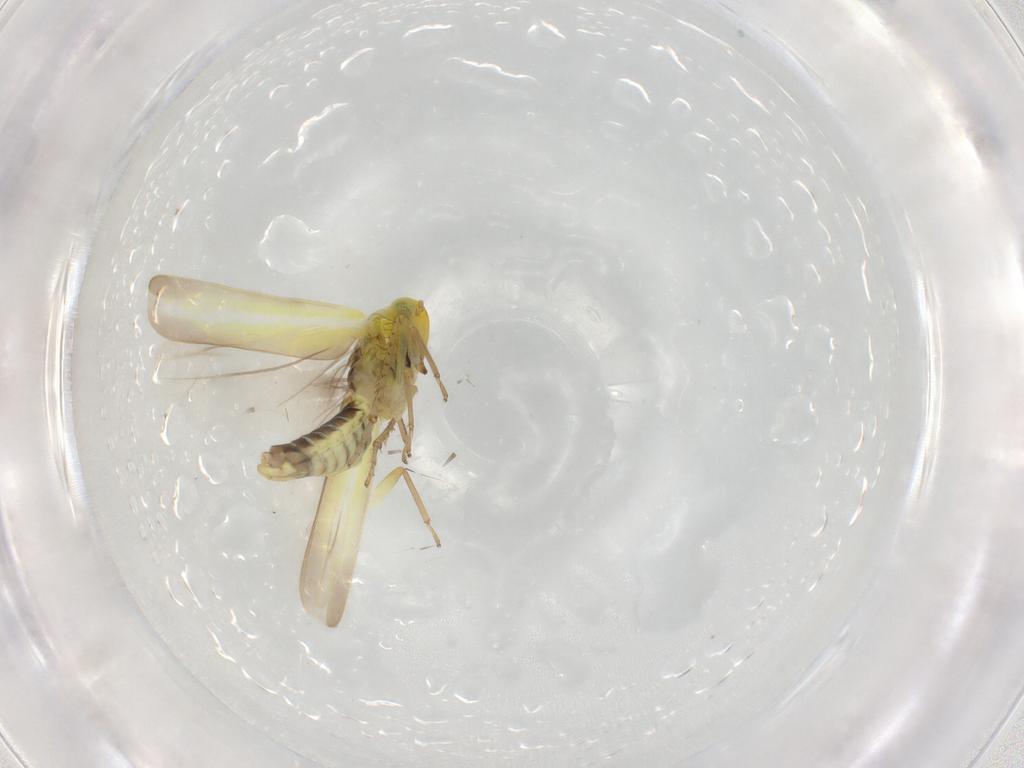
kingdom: Animalia
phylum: Arthropoda
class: Insecta
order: Hemiptera
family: Cicadellidae
